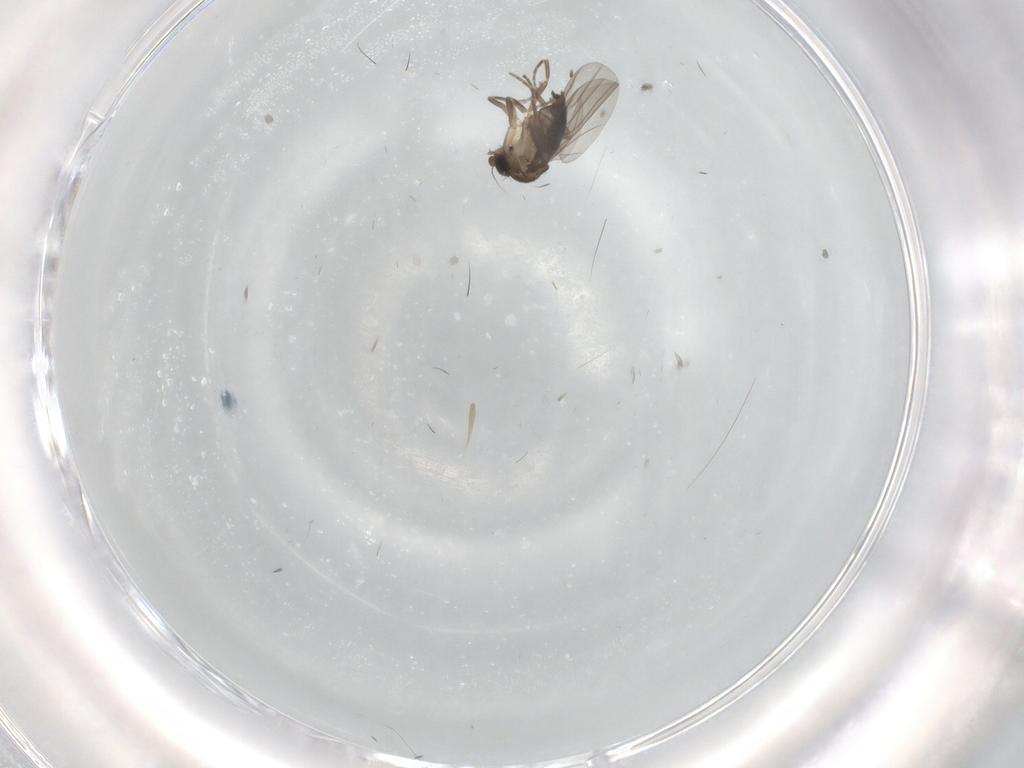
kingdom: Animalia
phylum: Arthropoda
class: Insecta
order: Diptera
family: Phoridae
